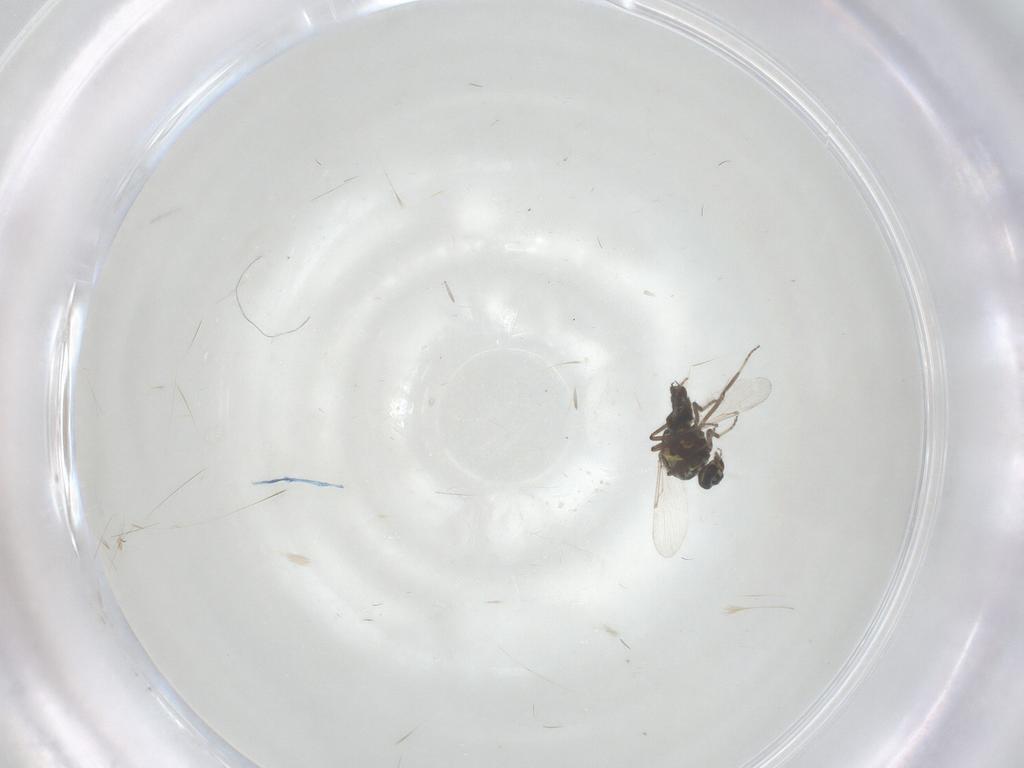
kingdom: Animalia
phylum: Arthropoda
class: Insecta
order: Diptera
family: Ceratopogonidae
